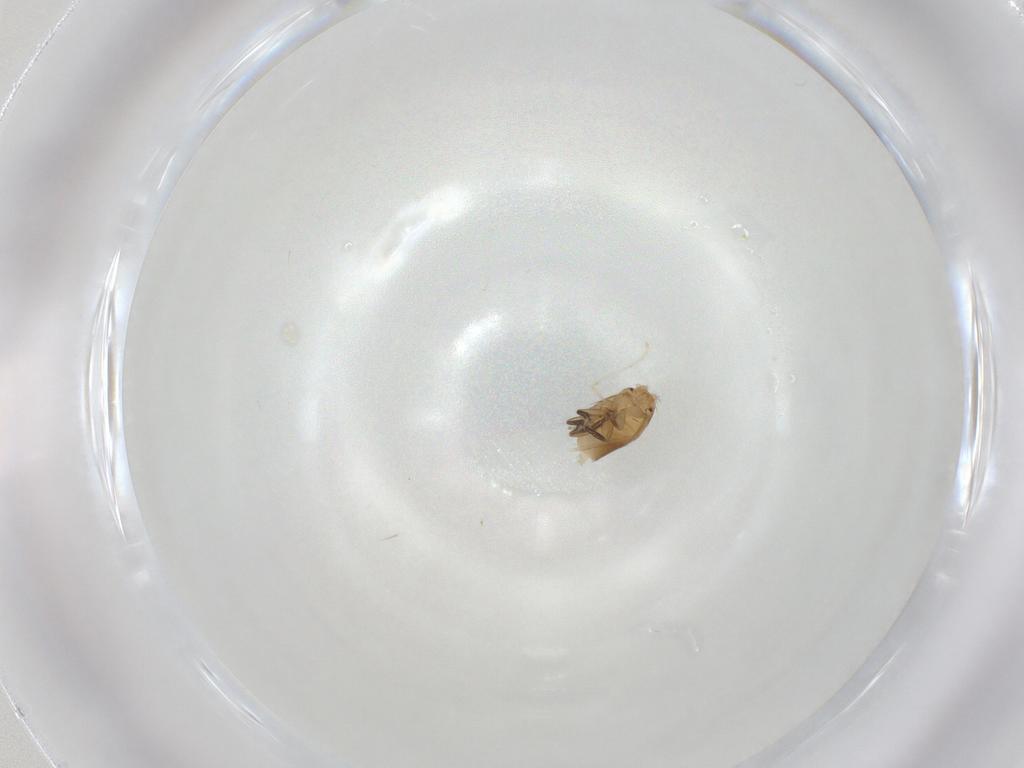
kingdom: Animalia
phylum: Arthropoda
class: Insecta
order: Diptera
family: Phoridae
